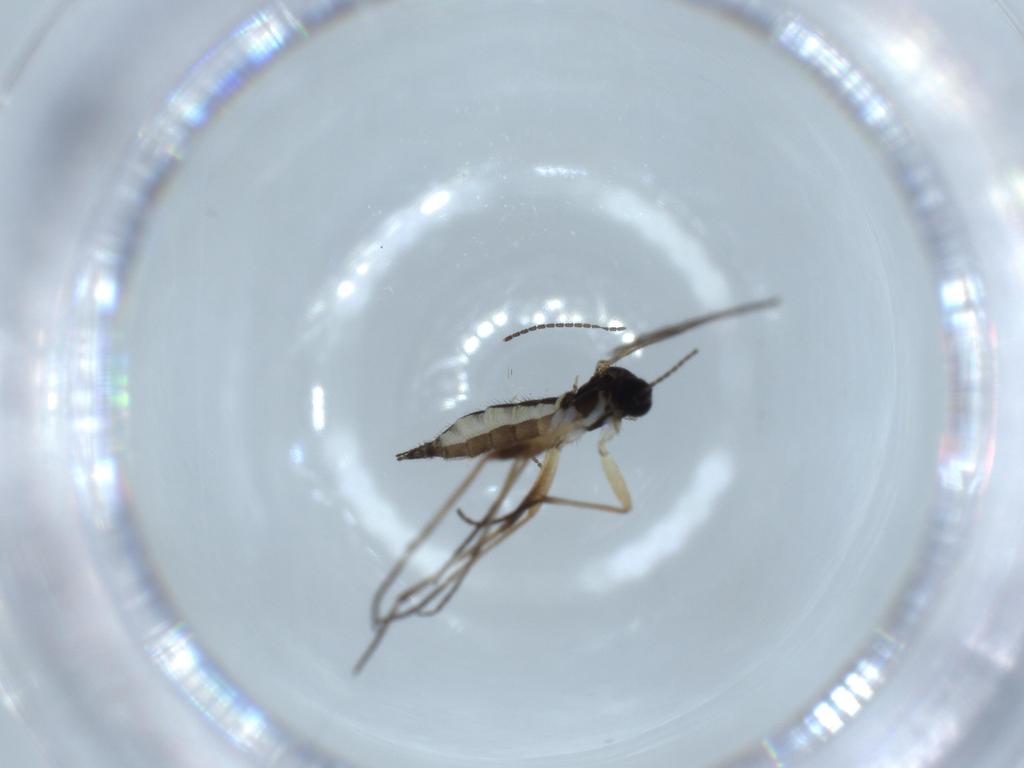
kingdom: Animalia
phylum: Arthropoda
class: Insecta
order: Diptera
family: Sciaridae
